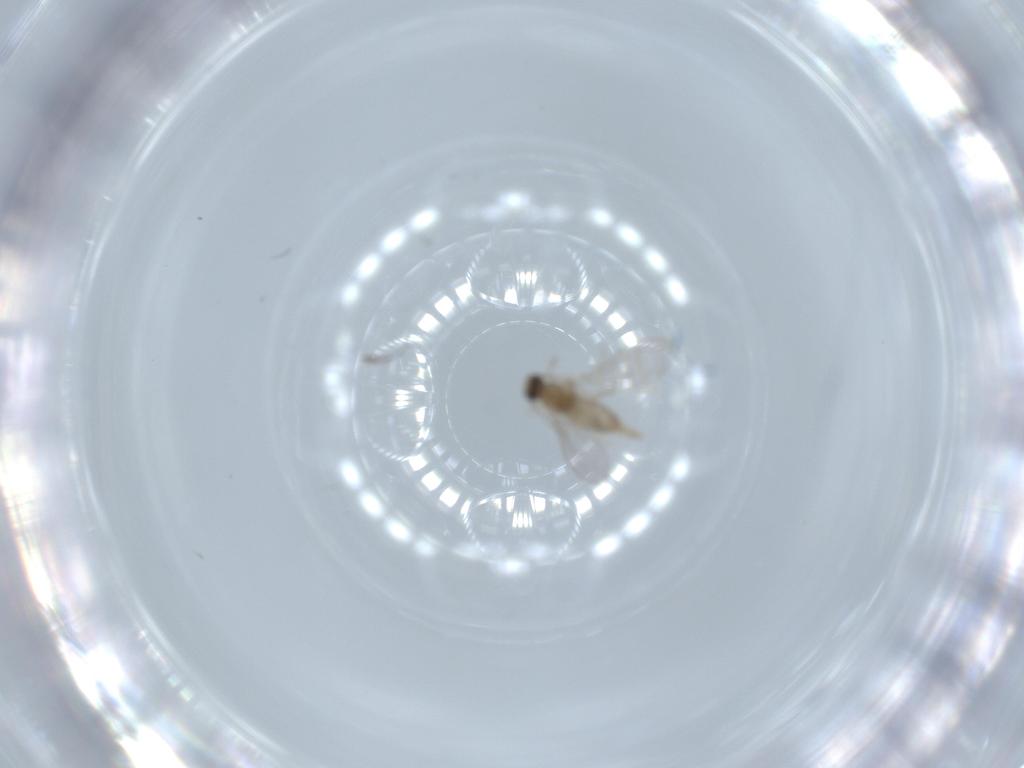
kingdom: Animalia
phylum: Arthropoda
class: Insecta
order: Diptera
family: Cecidomyiidae
